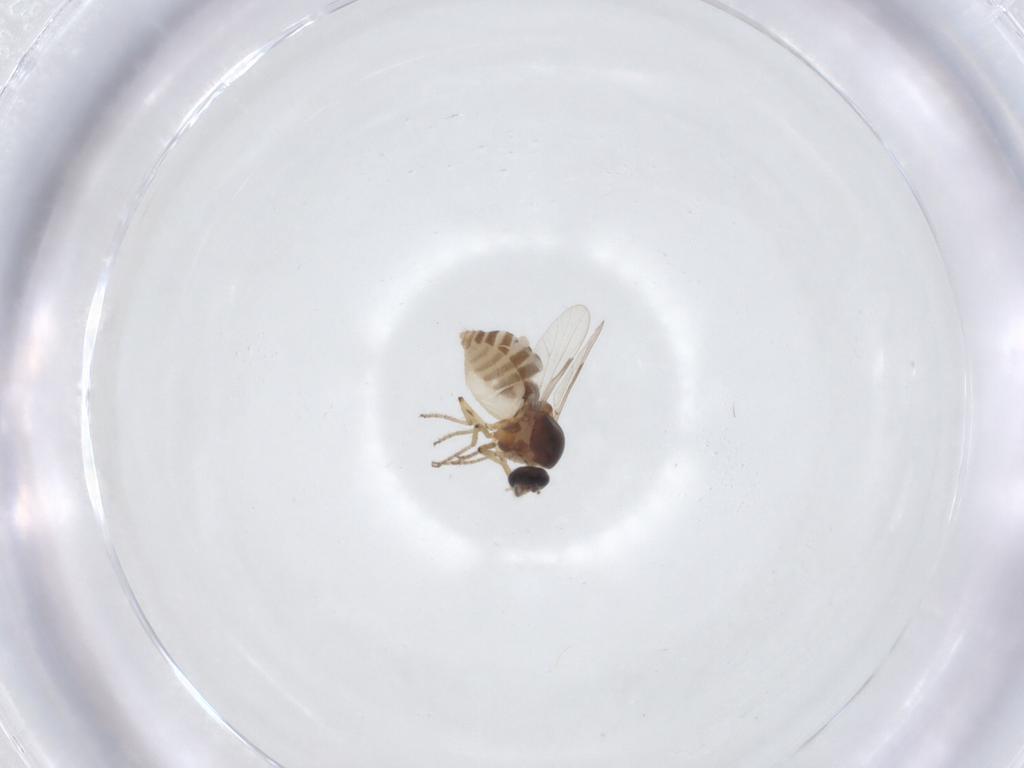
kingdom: Animalia
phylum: Arthropoda
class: Insecta
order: Diptera
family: Ceratopogonidae
